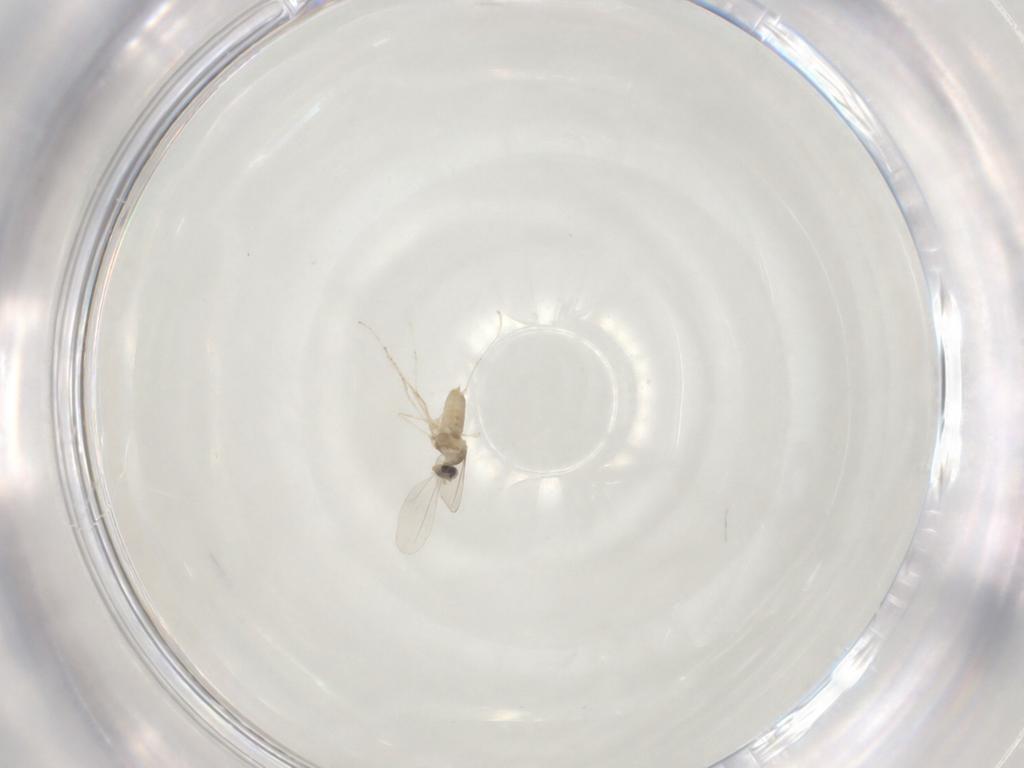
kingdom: Animalia
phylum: Arthropoda
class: Insecta
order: Diptera
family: Cecidomyiidae
